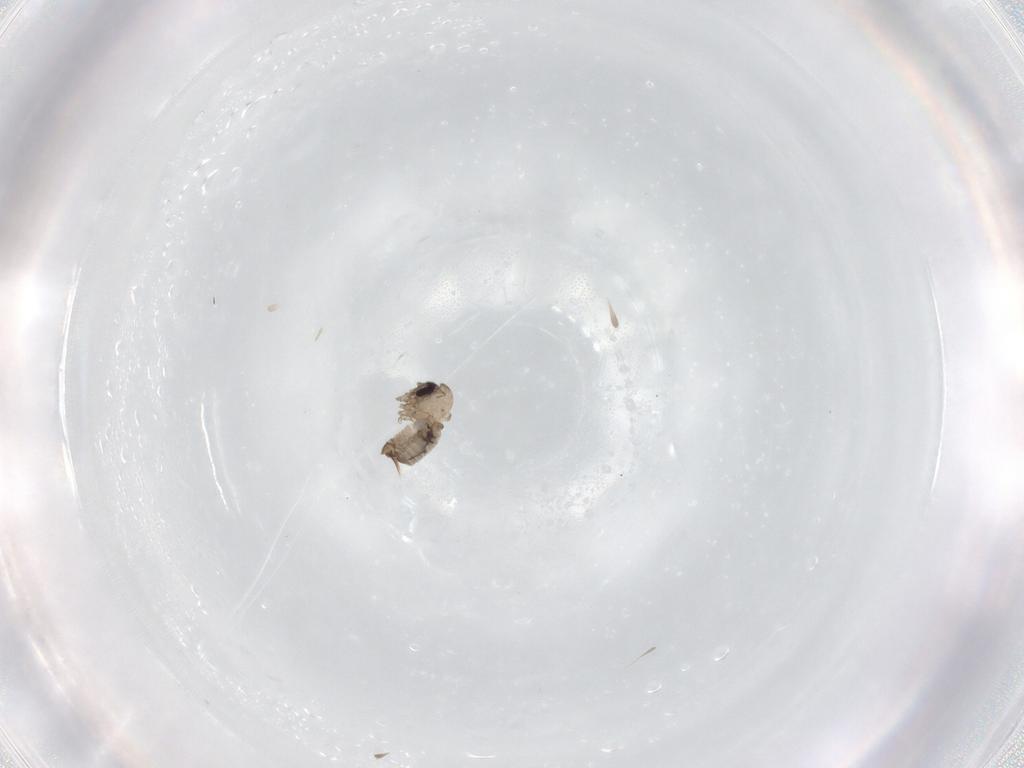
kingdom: Animalia
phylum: Arthropoda
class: Insecta
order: Diptera
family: Psychodidae
